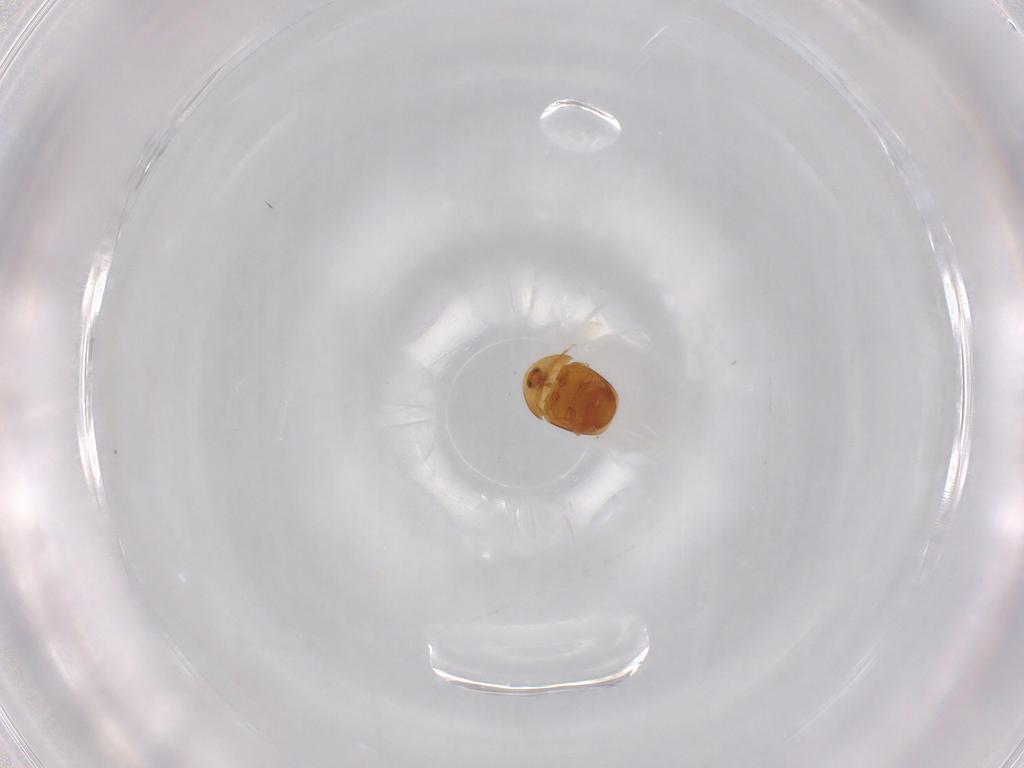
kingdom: Animalia
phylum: Arthropoda
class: Insecta
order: Coleoptera
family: Corylophidae
